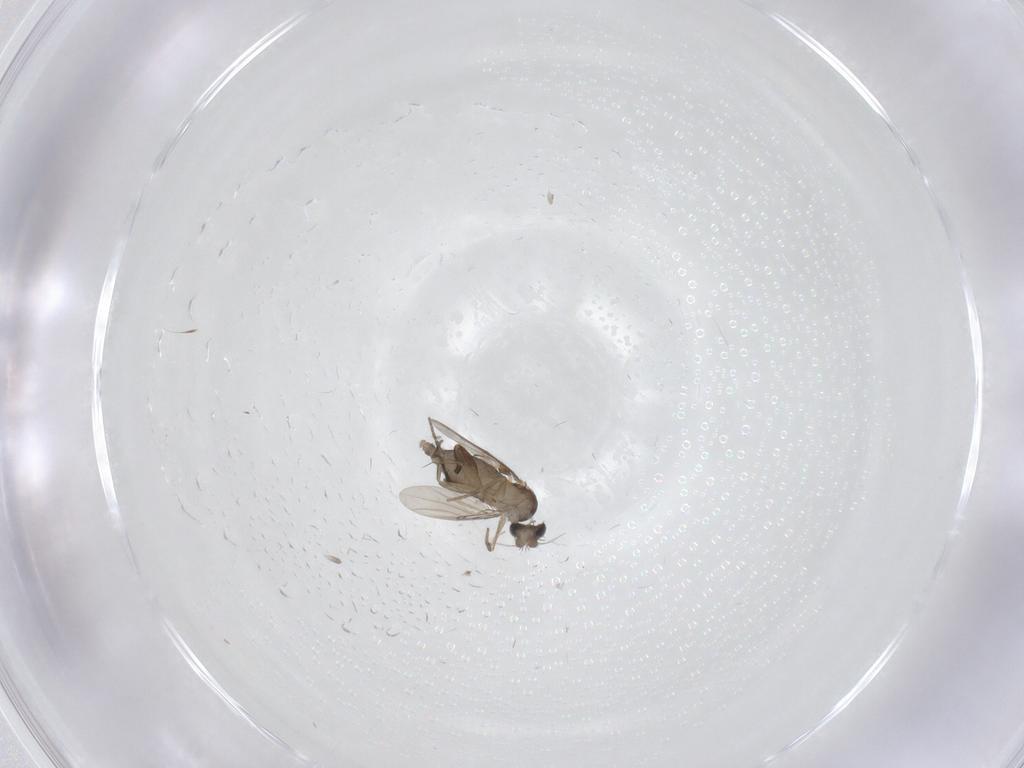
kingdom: Animalia
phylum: Arthropoda
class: Insecta
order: Diptera
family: Phoridae
